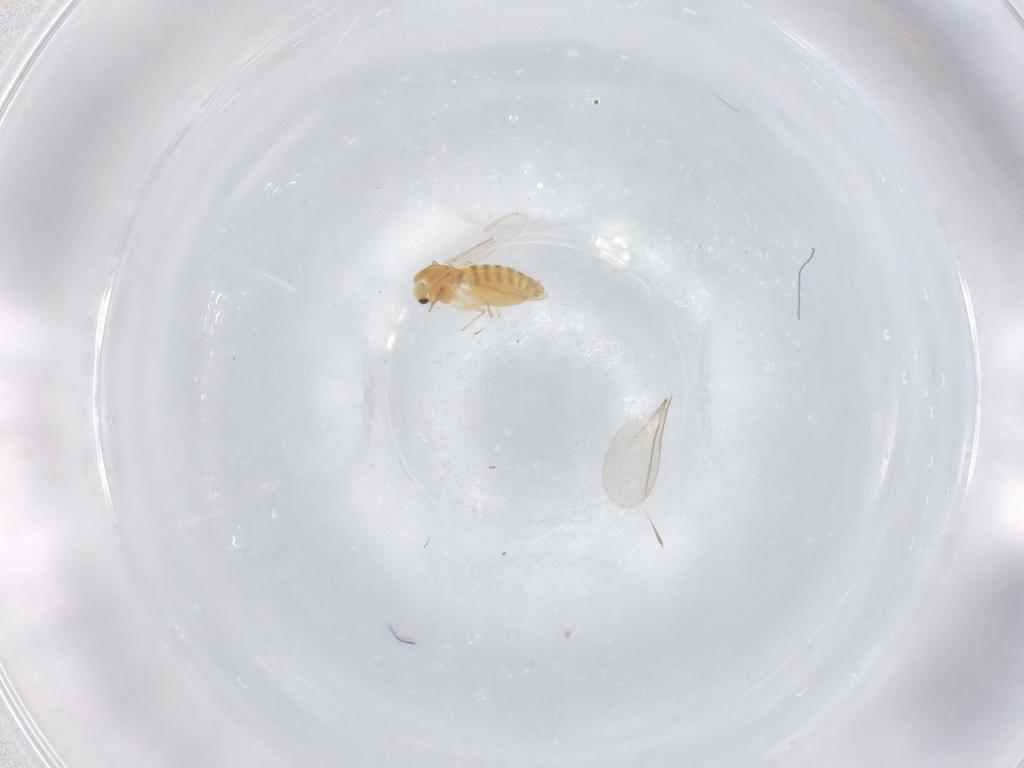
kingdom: Animalia
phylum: Arthropoda
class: Insecta
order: Diptera
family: Chironomidae
